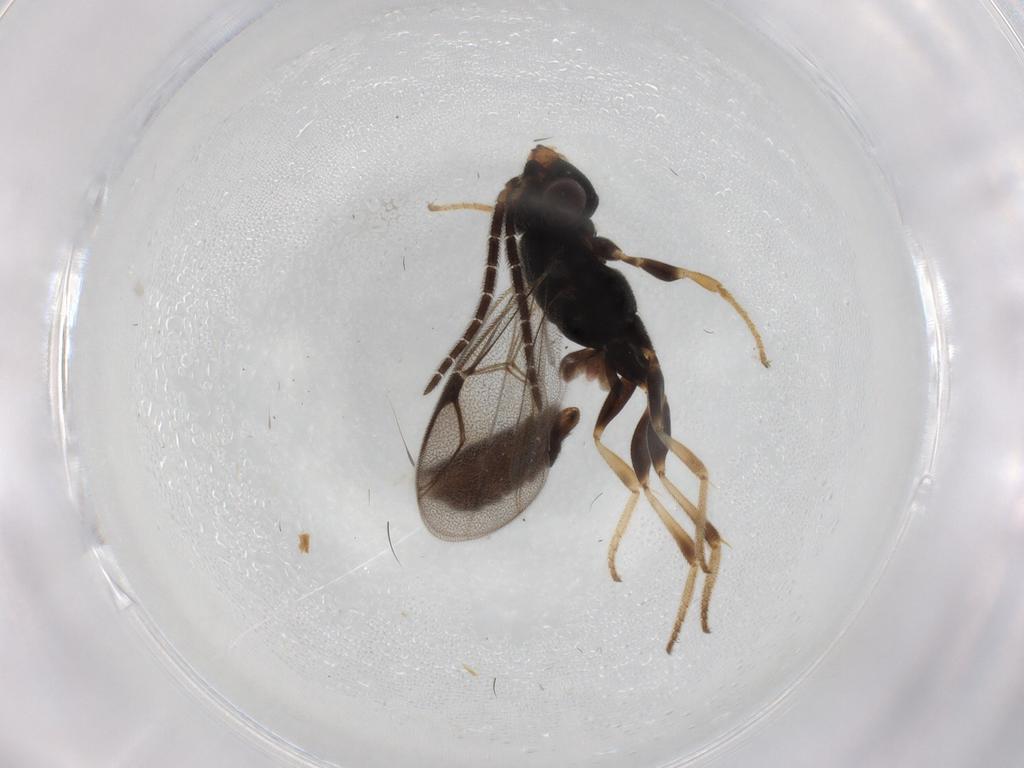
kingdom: Animalia
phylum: Arthropoda
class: Insecta
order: Hymenoptera
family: Dryinidae
